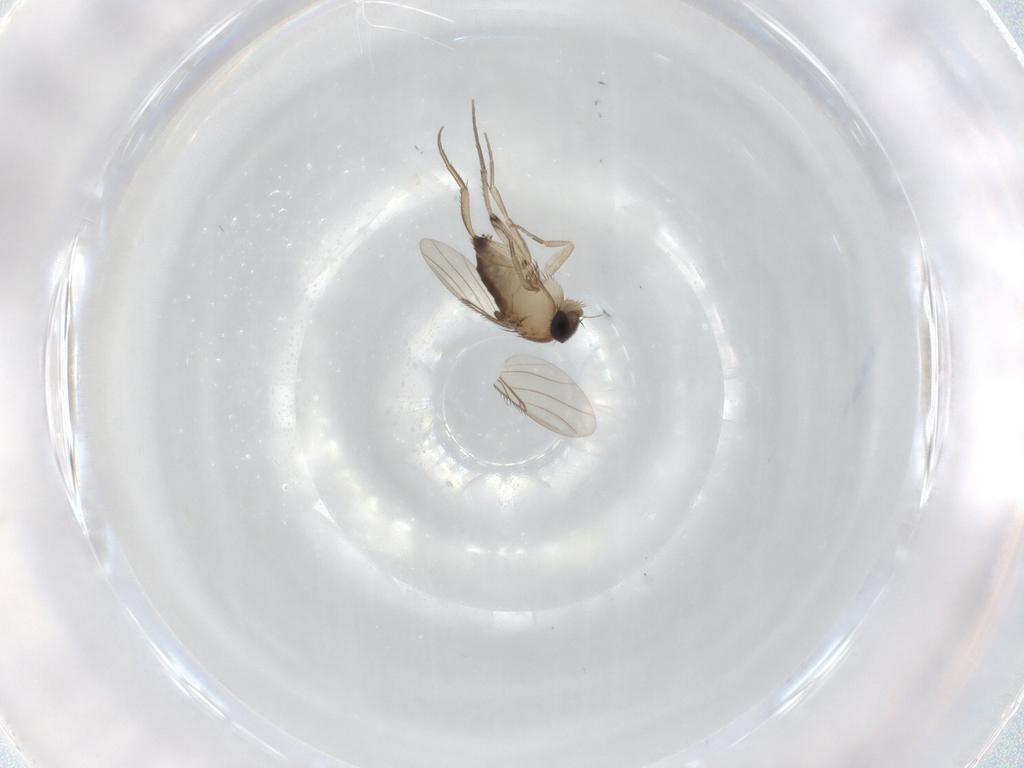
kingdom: Animalia
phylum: Arthropoda
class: Insecta
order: Diptera
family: Phoridae
